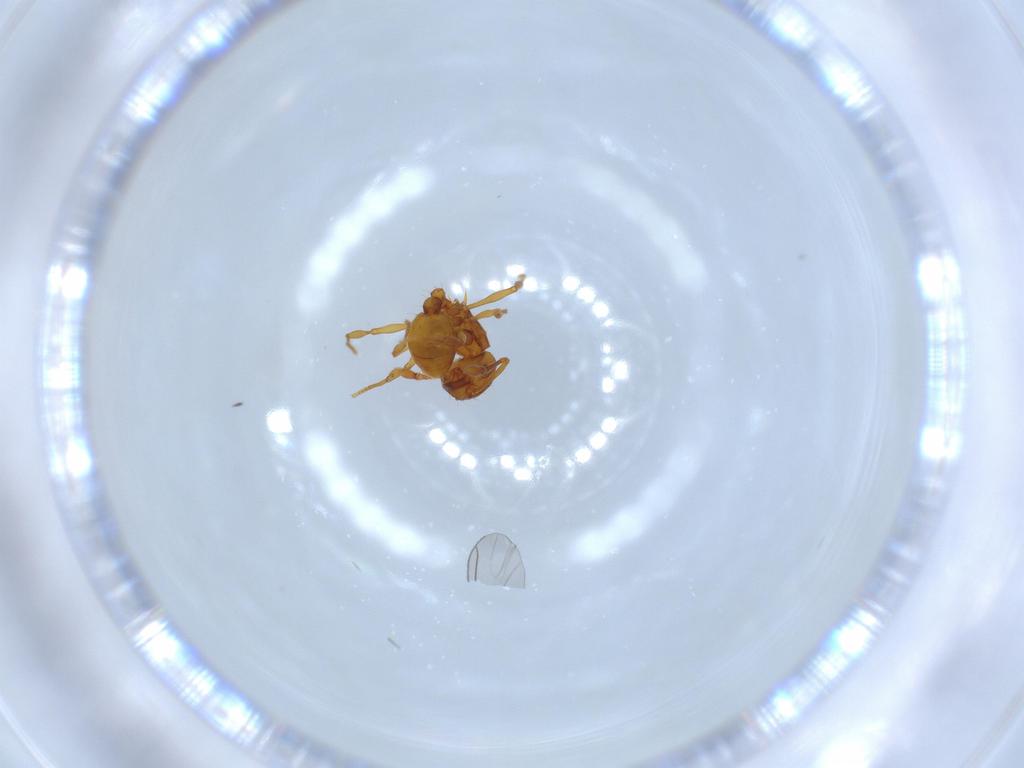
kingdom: Animalia
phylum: Arthropoda
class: Insecta
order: Hymenoptera
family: Formicidae
